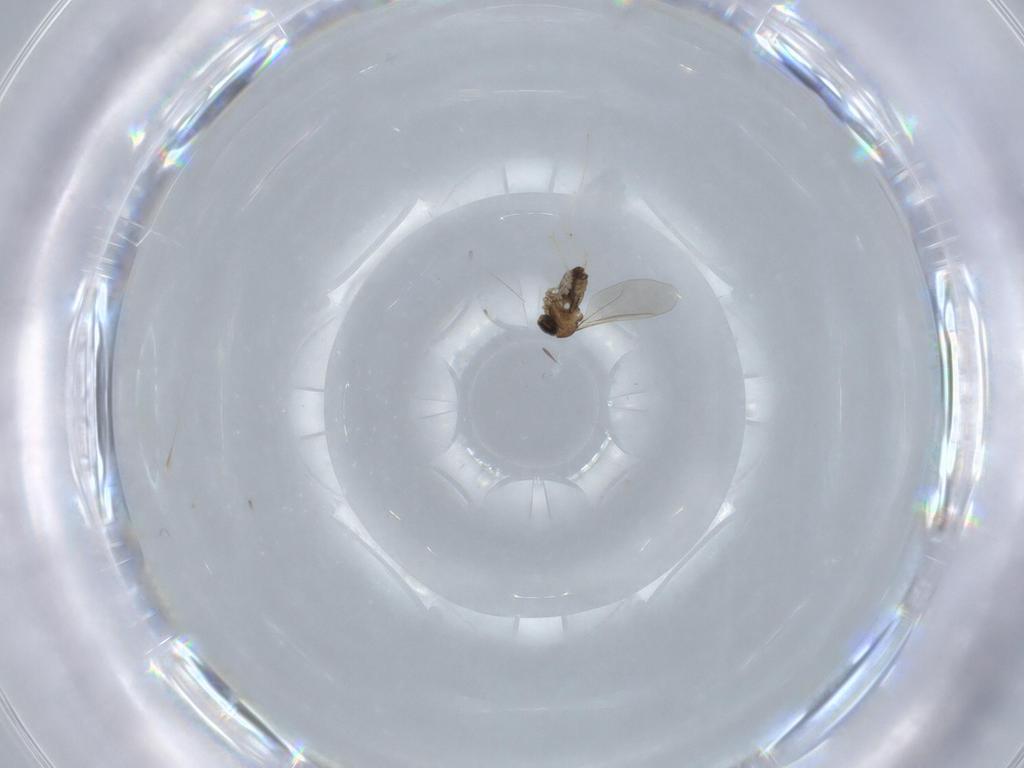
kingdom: Animalia
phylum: Arthropoda
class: Insecta
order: Diptera
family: Cecidomyiidae
